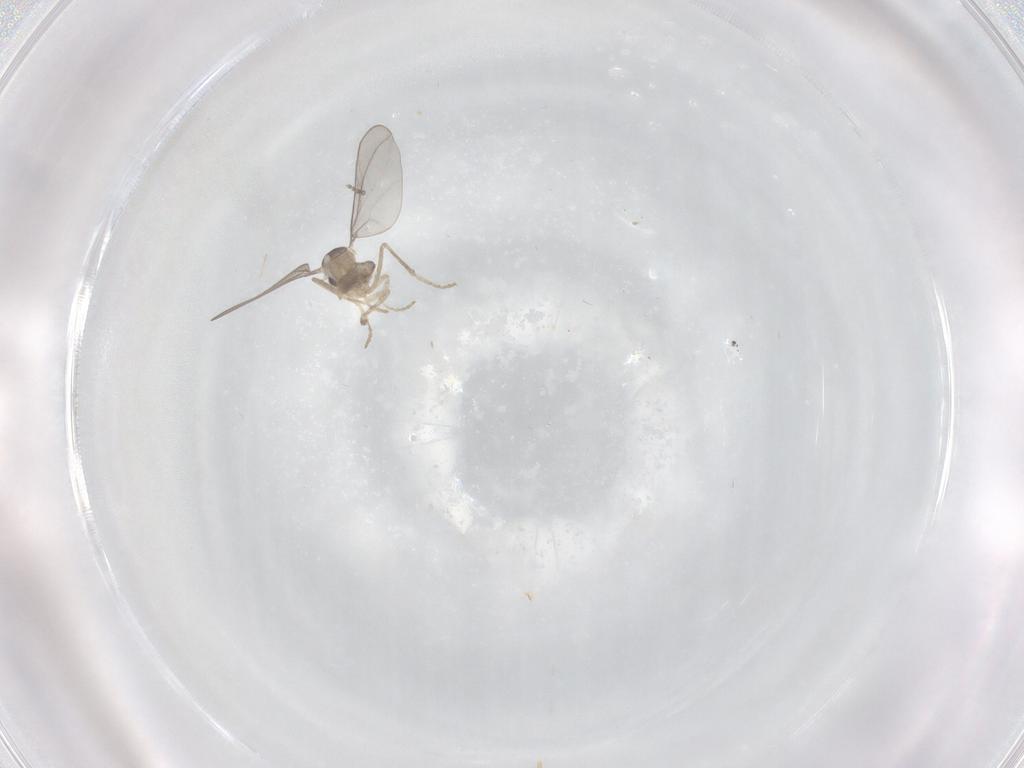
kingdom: Animalia
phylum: Arthropoda
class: Insecta
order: Diptera
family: Cecidomyiidae
